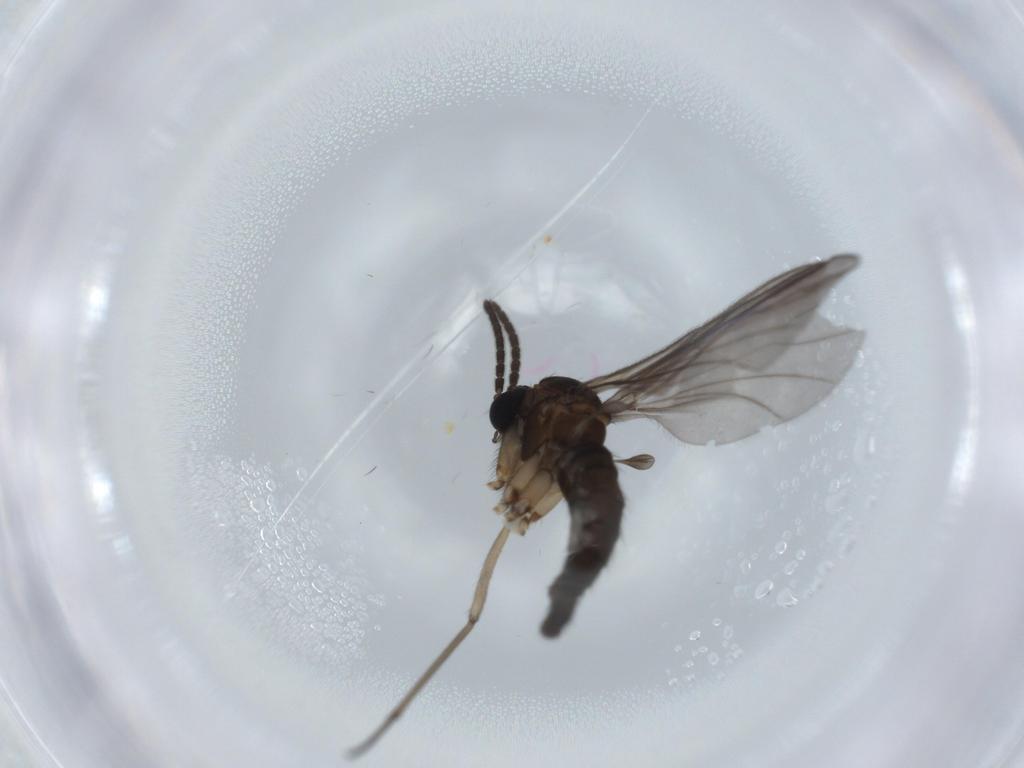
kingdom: Animalia
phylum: Arthropoda
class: Insecta
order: Diptera
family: Sciaridae
